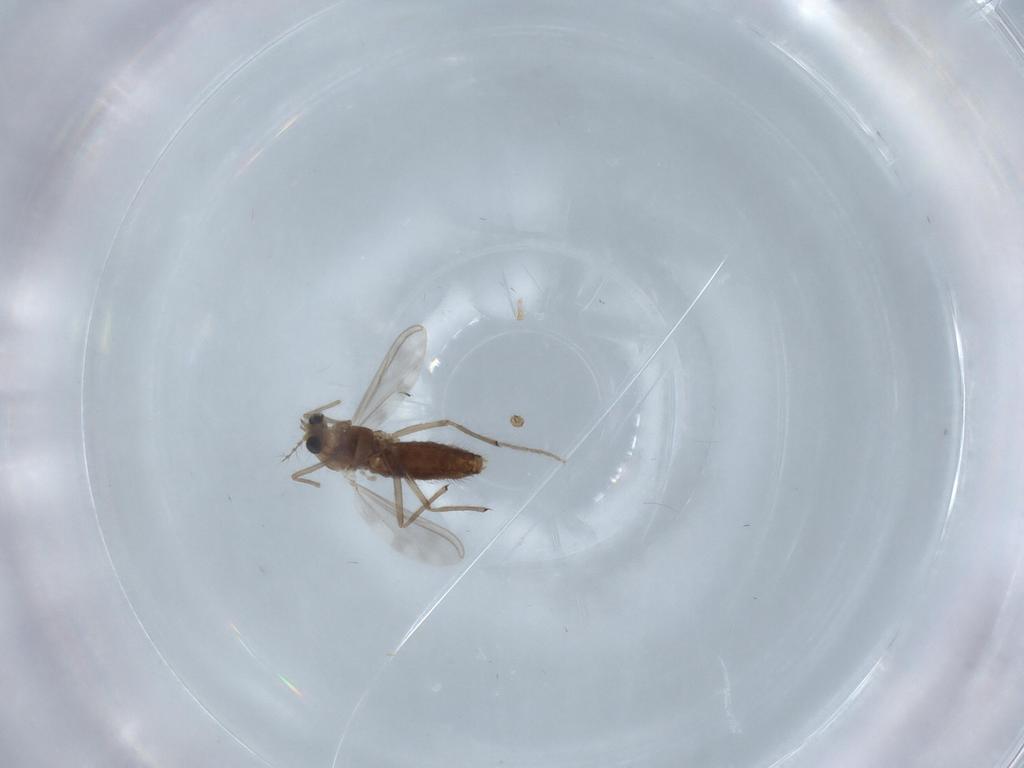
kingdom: Animalia
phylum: Arthropoda
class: Insecta
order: Diptera
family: Chironomidae
